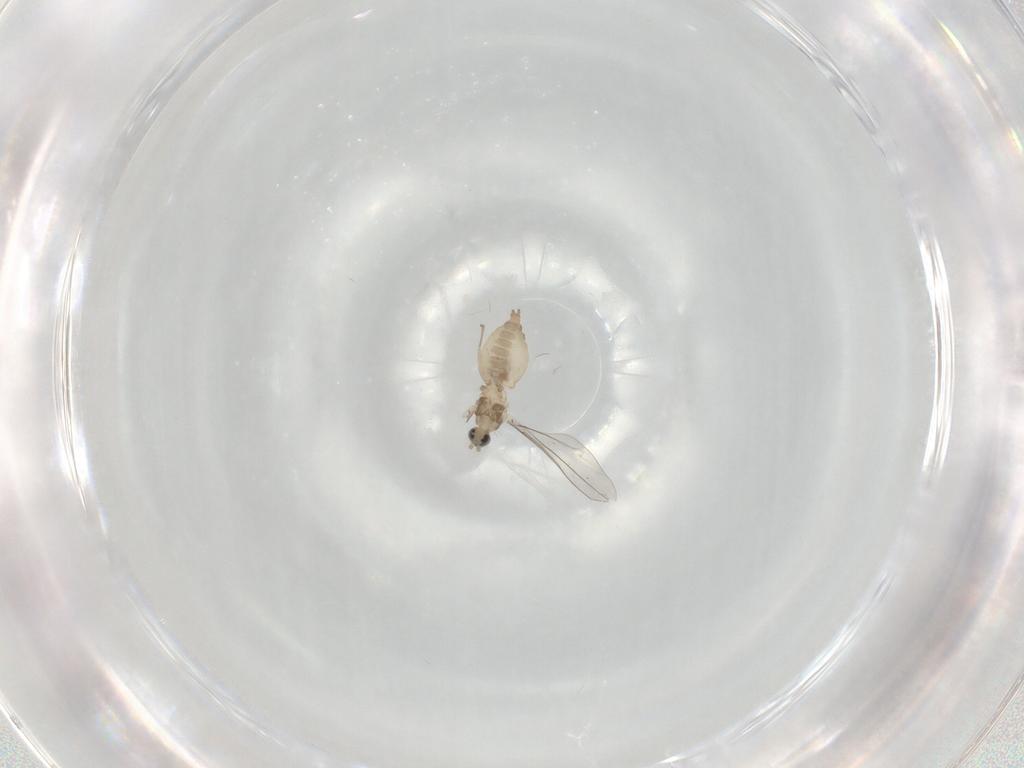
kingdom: Animalia
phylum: Arthropoda
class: Insecta
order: Diptera
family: Cecidomyiidae
